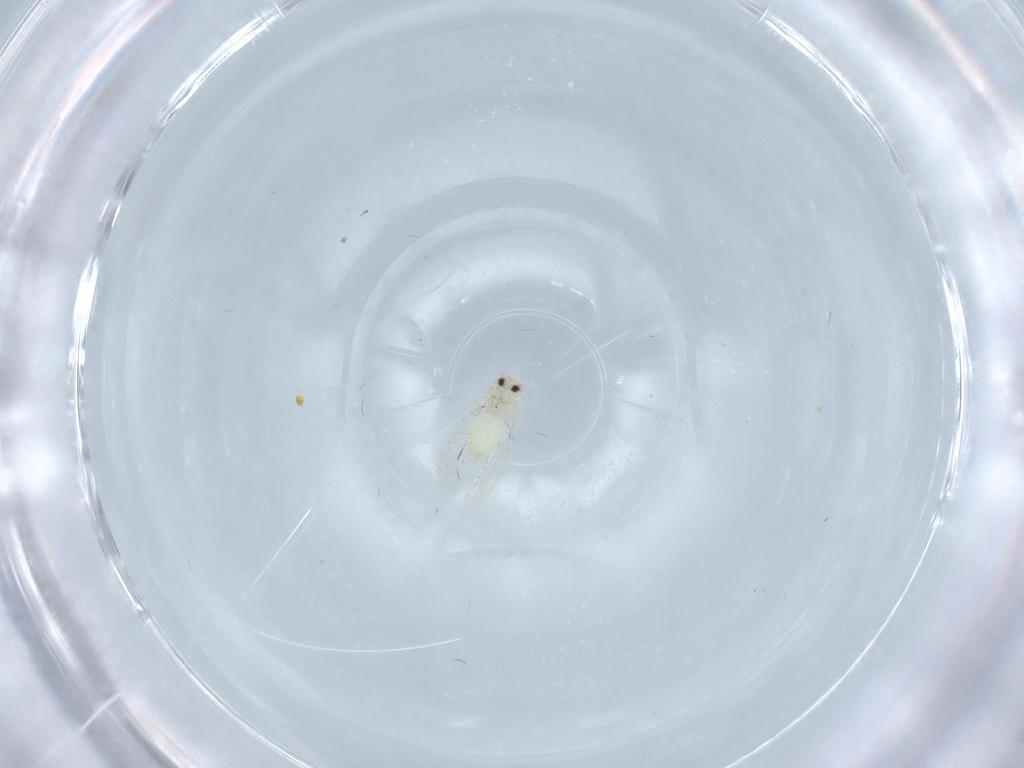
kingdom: Animalia
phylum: Arthropoda
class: Insecta
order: Hemiptera
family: Aleyrodidae
